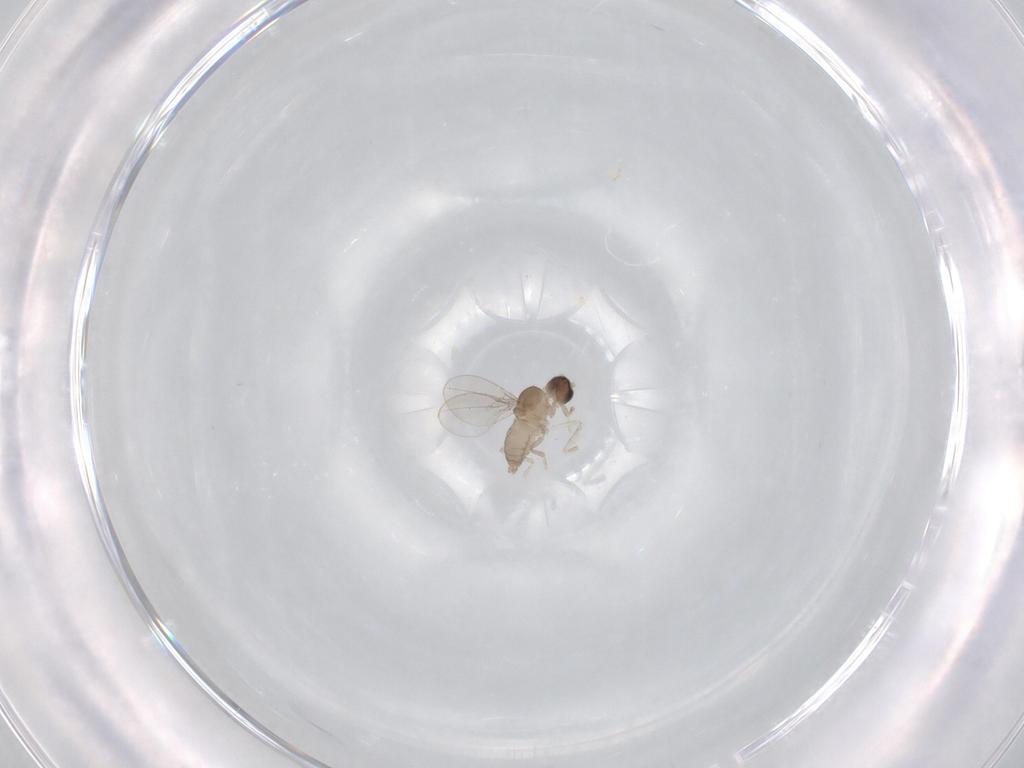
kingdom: Animalia
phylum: Arthropoda
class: Insecta
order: Diptera
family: Cecidomyiidae
